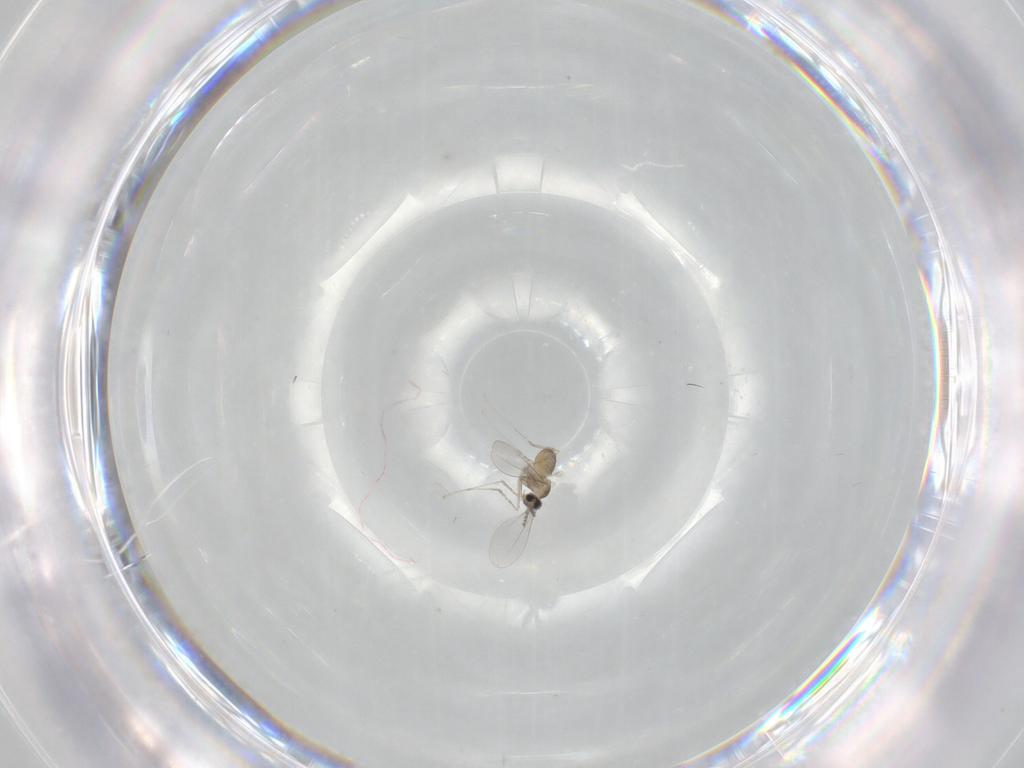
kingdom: Animalia
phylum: Arthropoda
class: Insecta
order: Diptera
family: Cecidomyiidae
